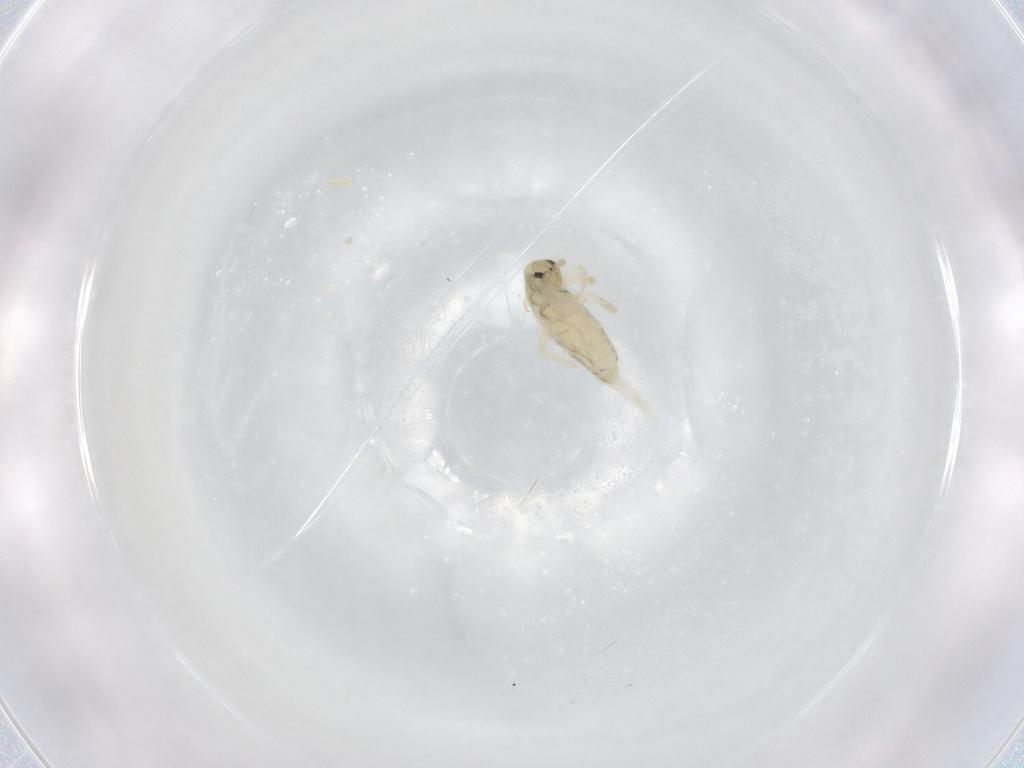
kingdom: Animalia
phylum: Arthropoda
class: Collembola
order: Entomobryomorpha
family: Entomobryidae
